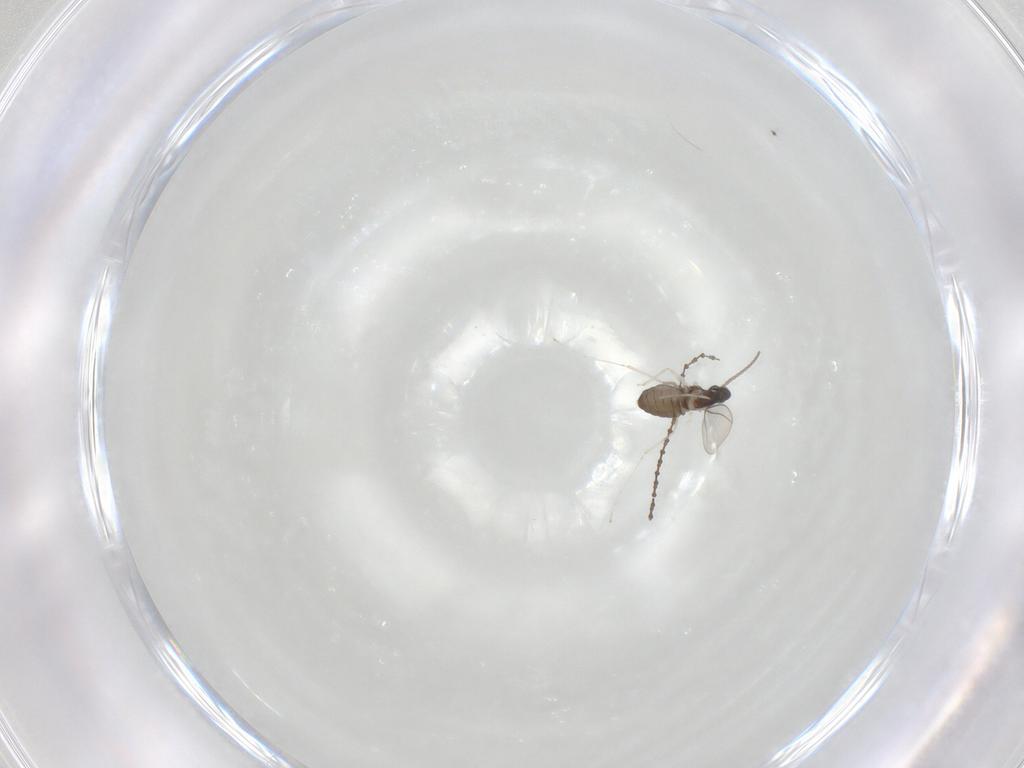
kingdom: Animalia
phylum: Arthropoda
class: Insecta
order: Diptera
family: Cecidomyiidae
